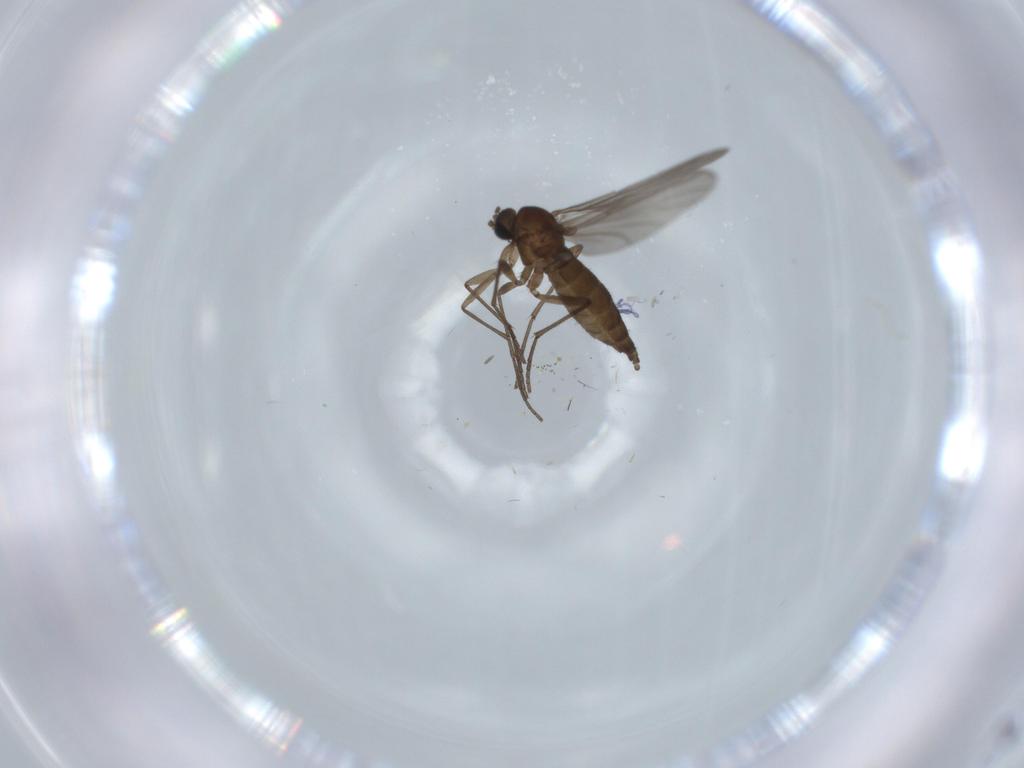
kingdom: Animalia
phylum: Arthropoda
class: Insecta
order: Diptera
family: Sciaridae
